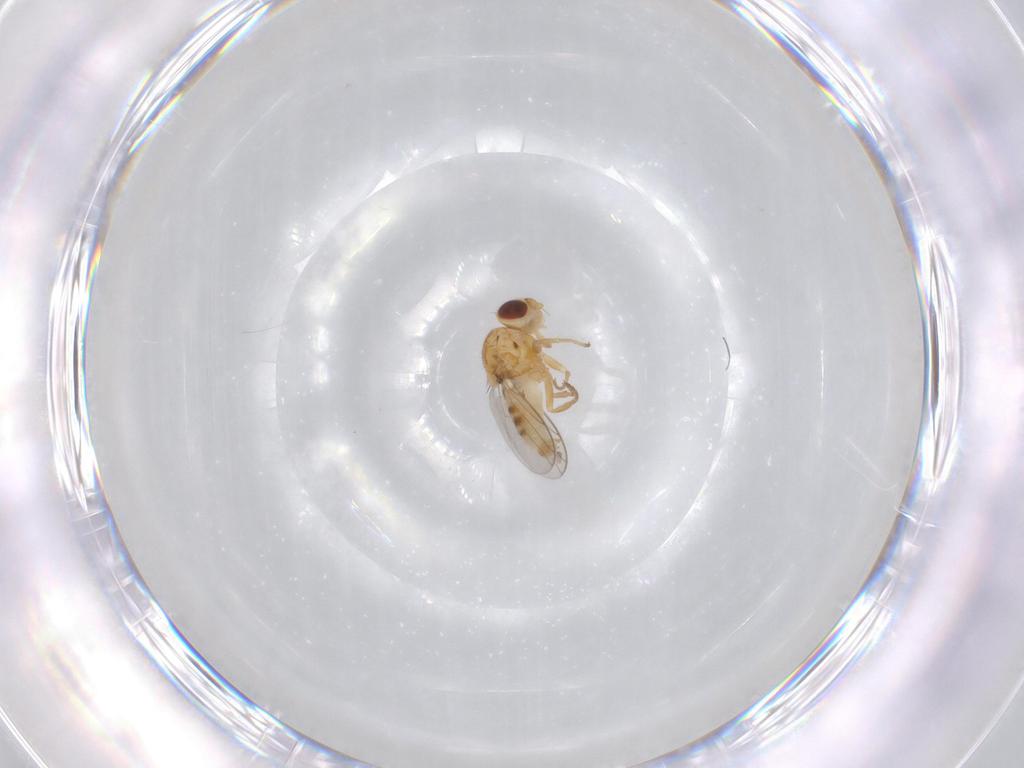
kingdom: Animalia
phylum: Arthropoda
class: Insecta
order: Diptera
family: Chloropidae
